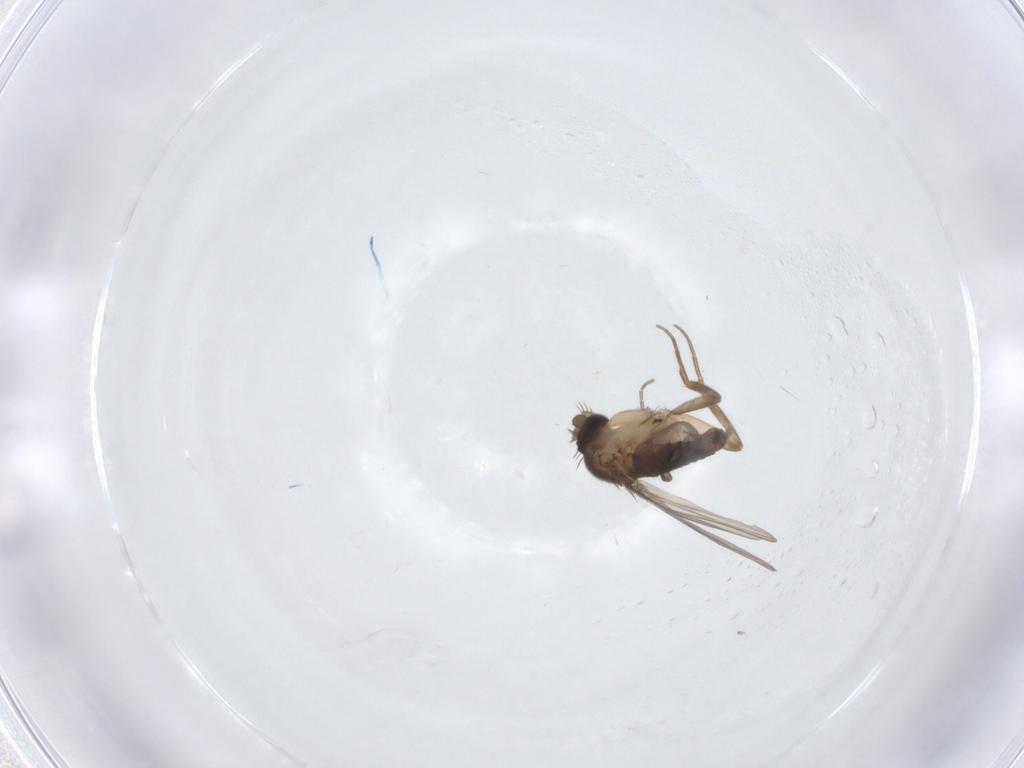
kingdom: Animalia
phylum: Arthropoda
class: Insecta
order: Diptera
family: Phoridae
